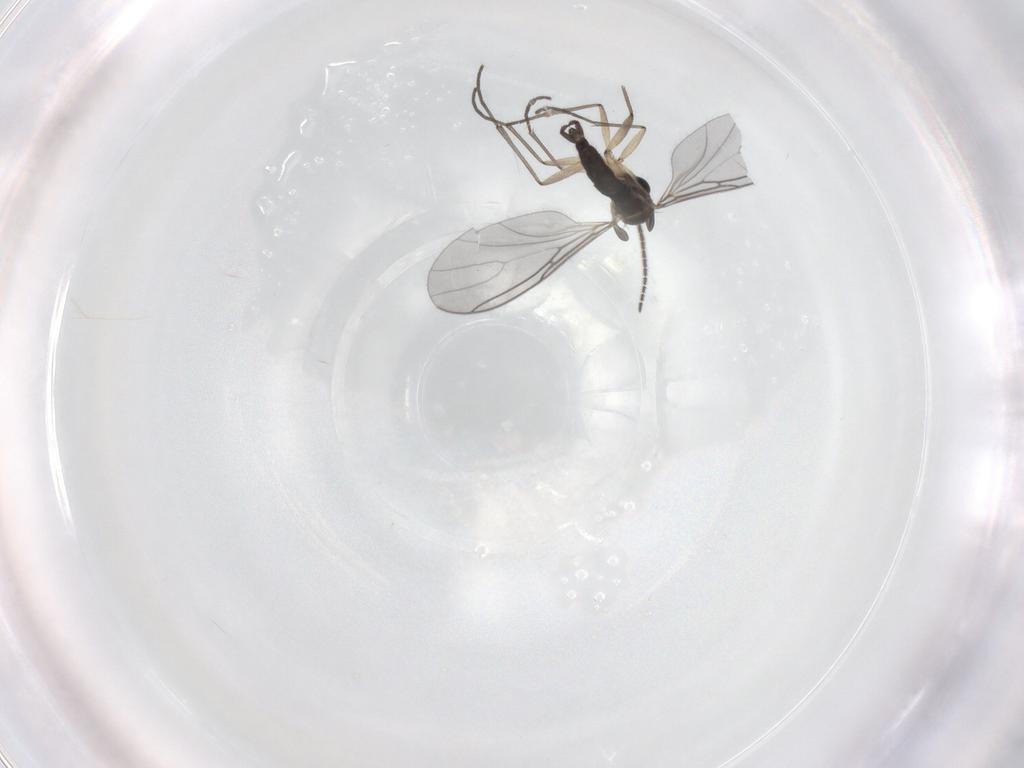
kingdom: Animalia
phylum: Arthropoda
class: Insecta
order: Diptera
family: Sciaridae
